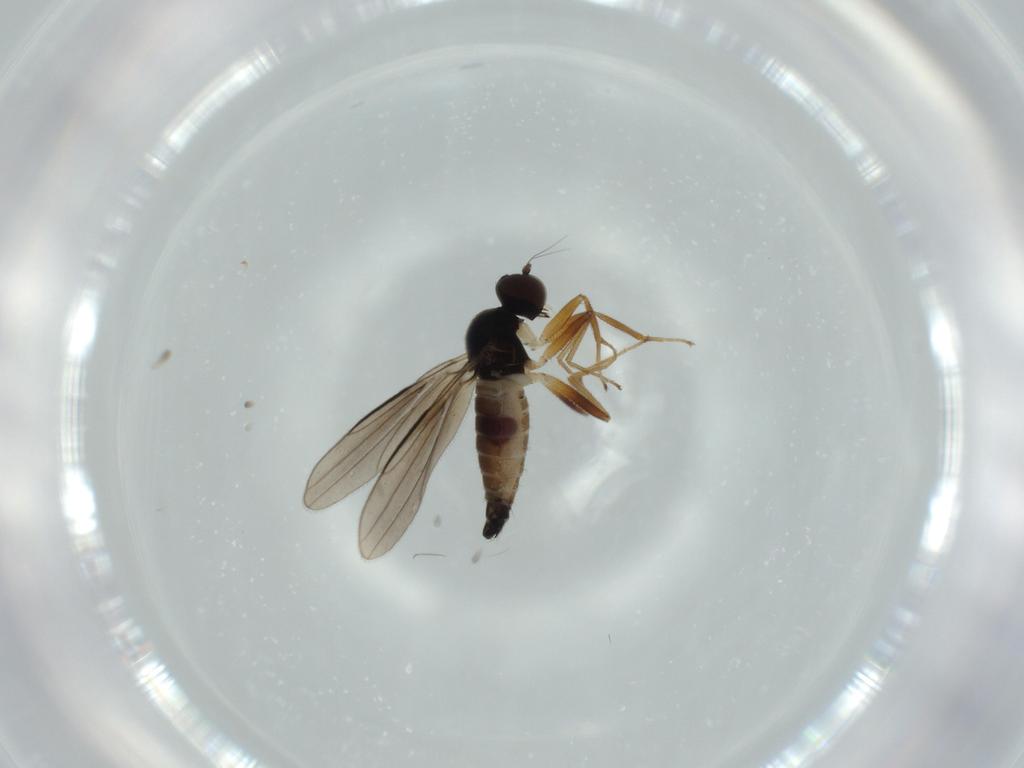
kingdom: Animalia
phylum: Arthropoda
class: Insecta
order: Diptera
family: Hybotidae
